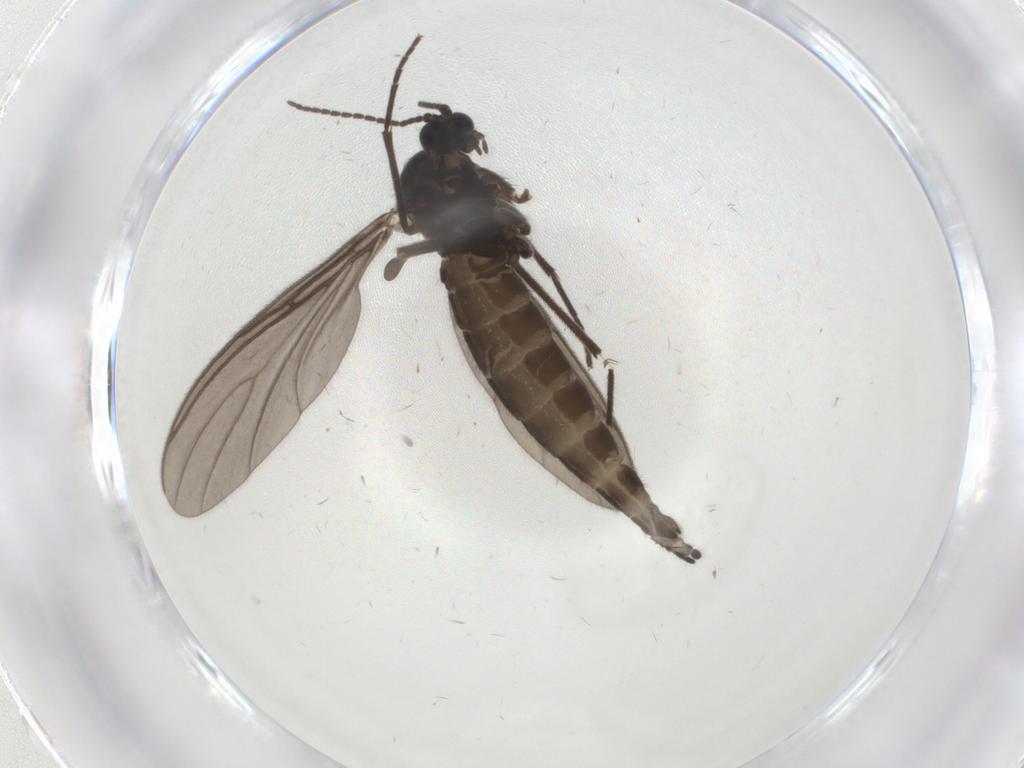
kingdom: Animalia
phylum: Arthropoda
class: Insecta
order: Diptera
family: Sciaridae
